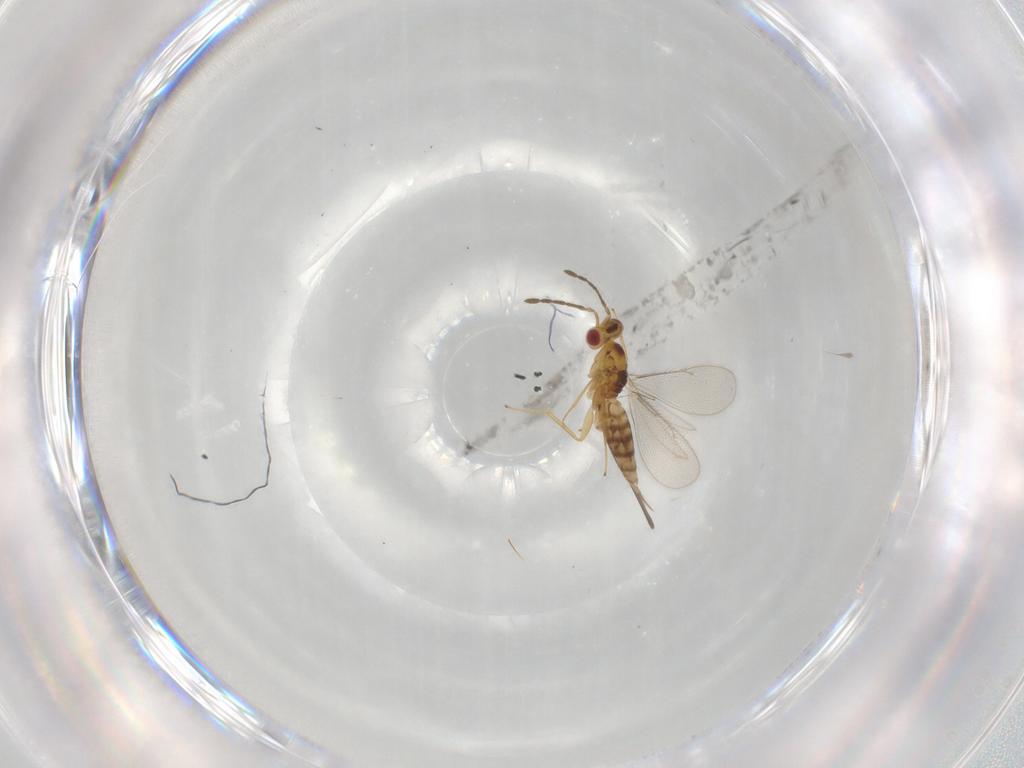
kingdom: Animalia
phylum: Arthropoda
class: Insecta
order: Hymenoptera
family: Eulophidae
